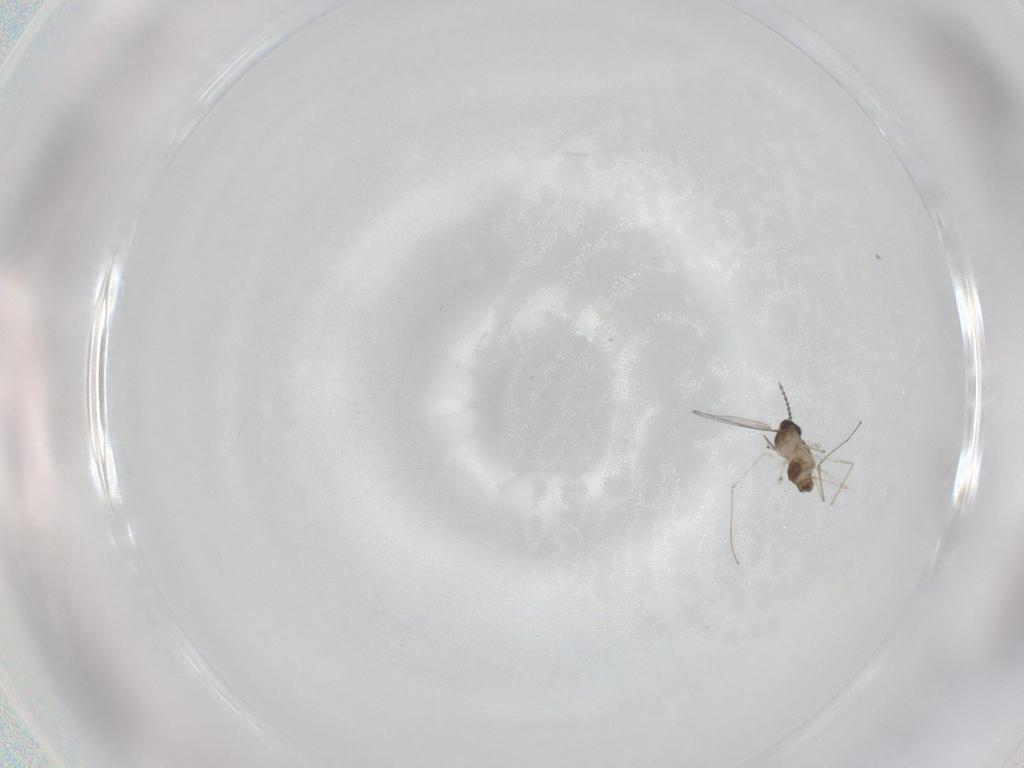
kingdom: Animalia
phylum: Arthropoda
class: Insecta
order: Diptera
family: Cecidomyiidae
